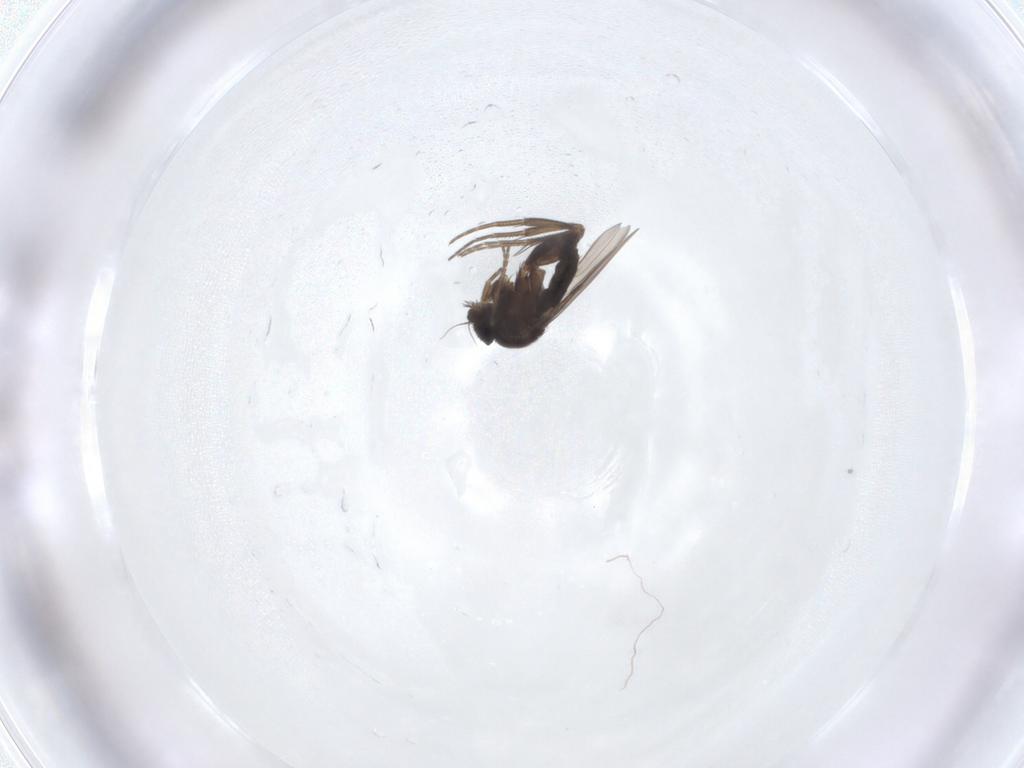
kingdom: Animalia
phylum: Arthropoda
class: Insecta
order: Diptera
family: Phoridae
